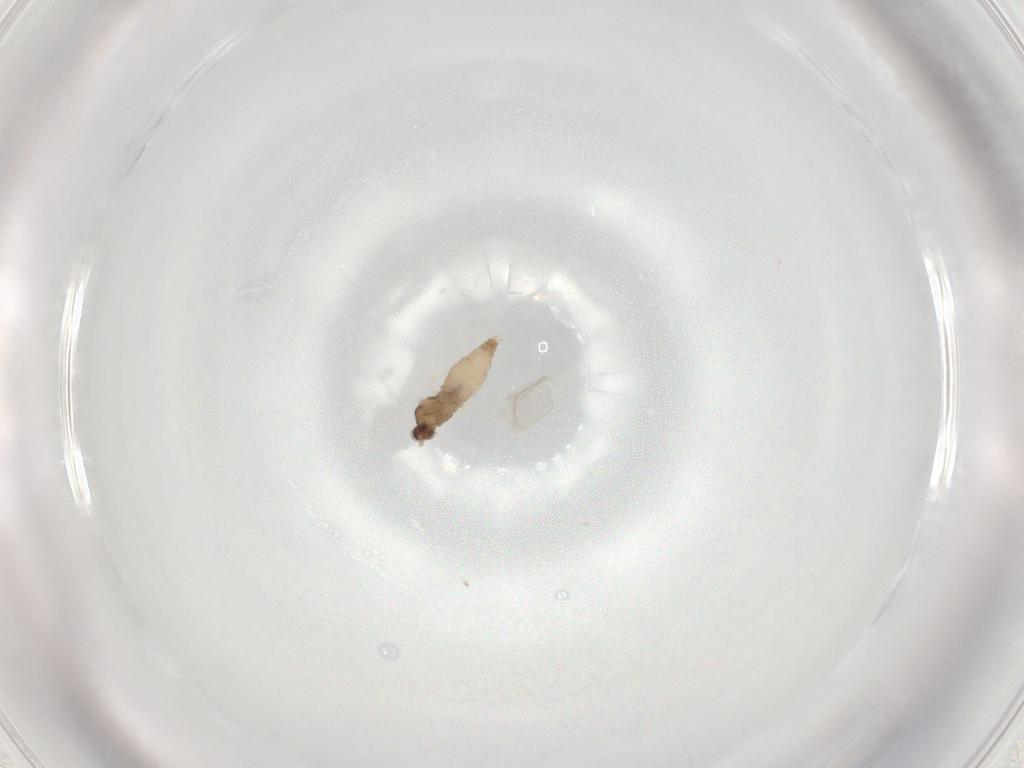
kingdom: Animalia
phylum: Arthropoda
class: Insecta
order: Diptera
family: Cecidomyiidae
